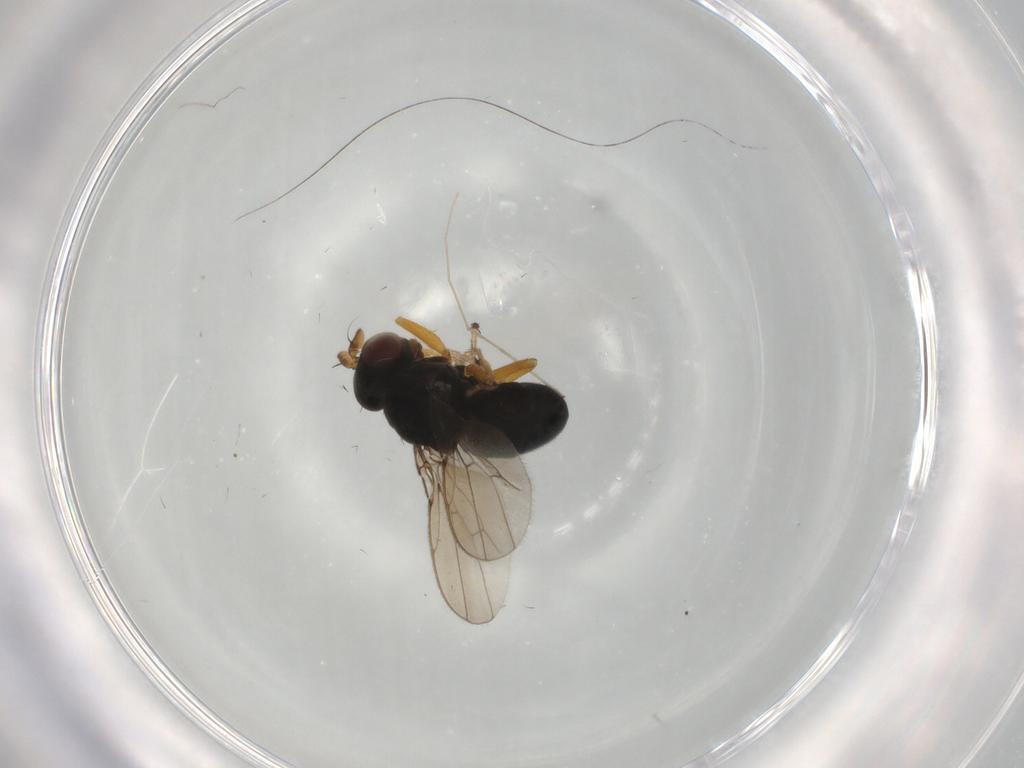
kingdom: Animalia
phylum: Arthropoda
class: Insecta
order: Diptera
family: Ephydridae
